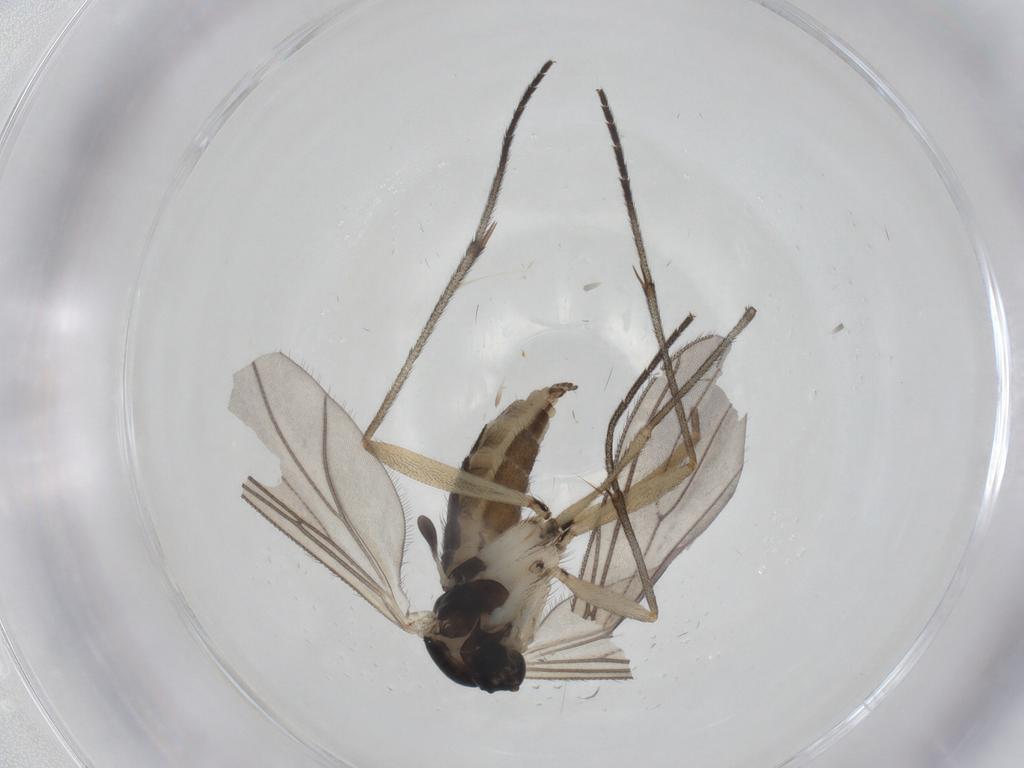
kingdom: Animalia
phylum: Arthropoda
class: Insecta
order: Diptera
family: Sciaridae
